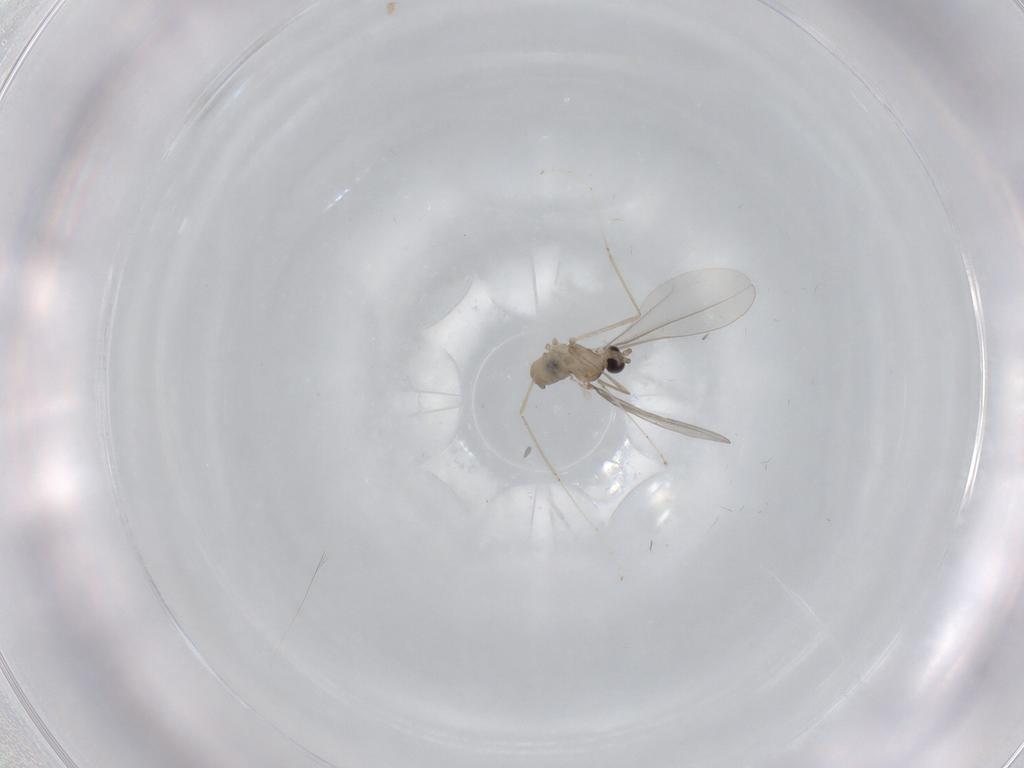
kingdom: Animalia
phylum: Arthropoda
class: Insecta
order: Diptera
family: Cecidomyiidae
